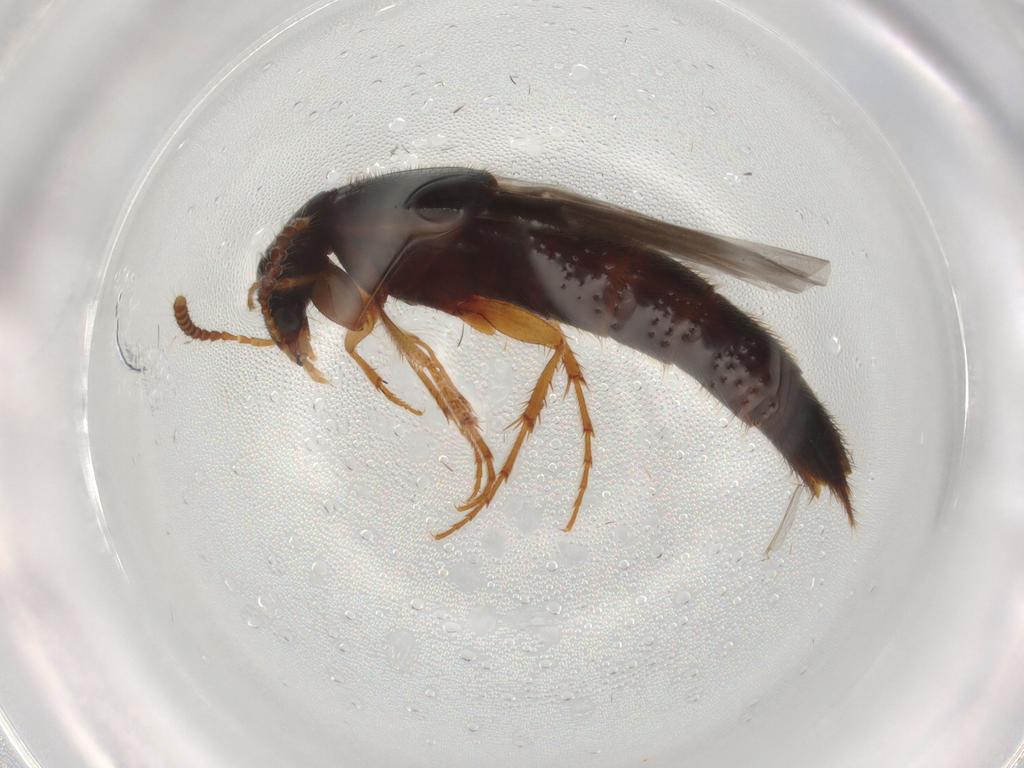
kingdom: Animalia
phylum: Arthropoda
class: Insecta
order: Coleoptera
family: Staphylinidae
